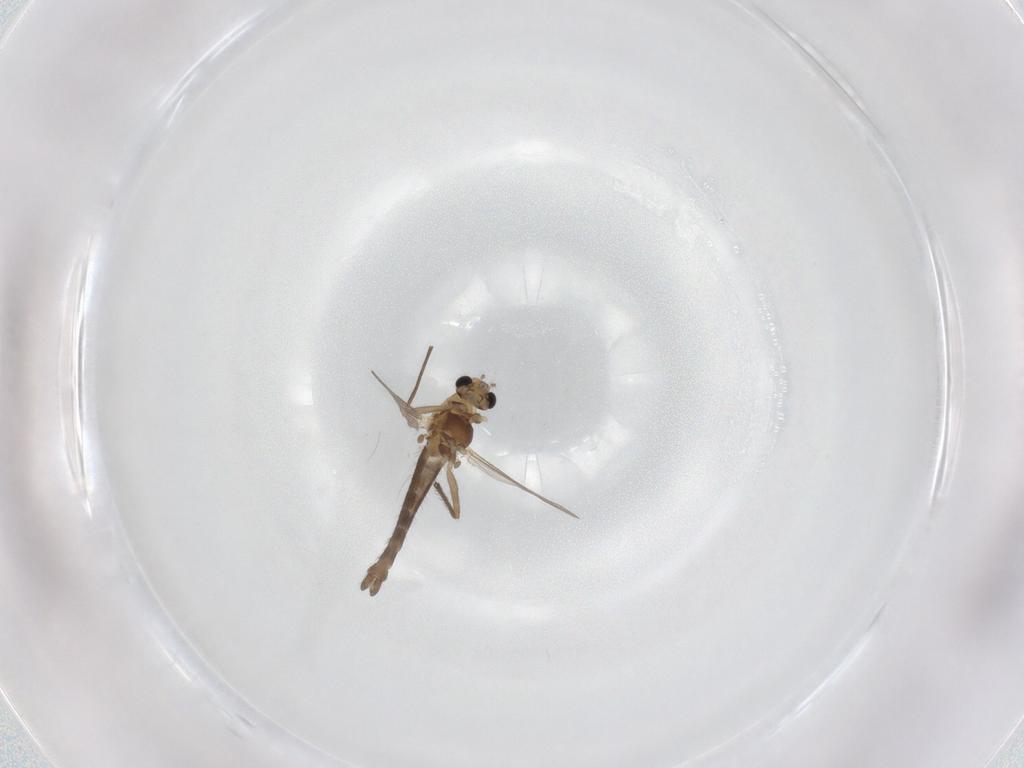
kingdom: Animalia
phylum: Arthropoda
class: Insecta
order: Diptera
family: Chironomidae
